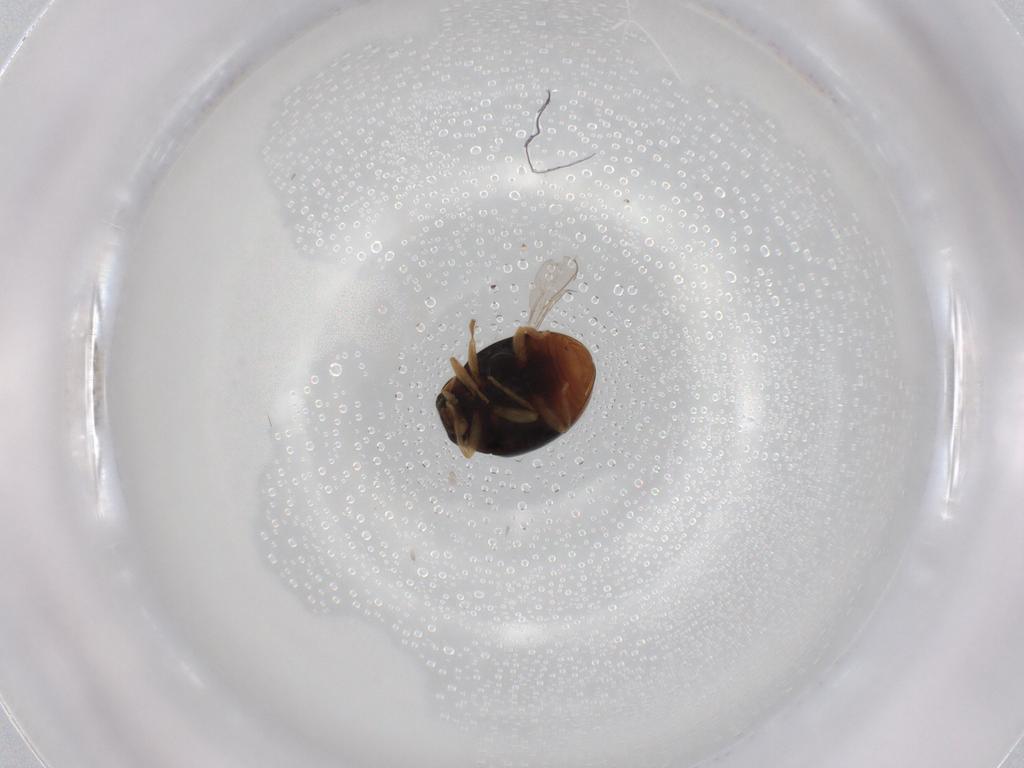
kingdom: Animalia
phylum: Arthropoda
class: Insecta
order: Coleoptera
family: Coccinellidae
